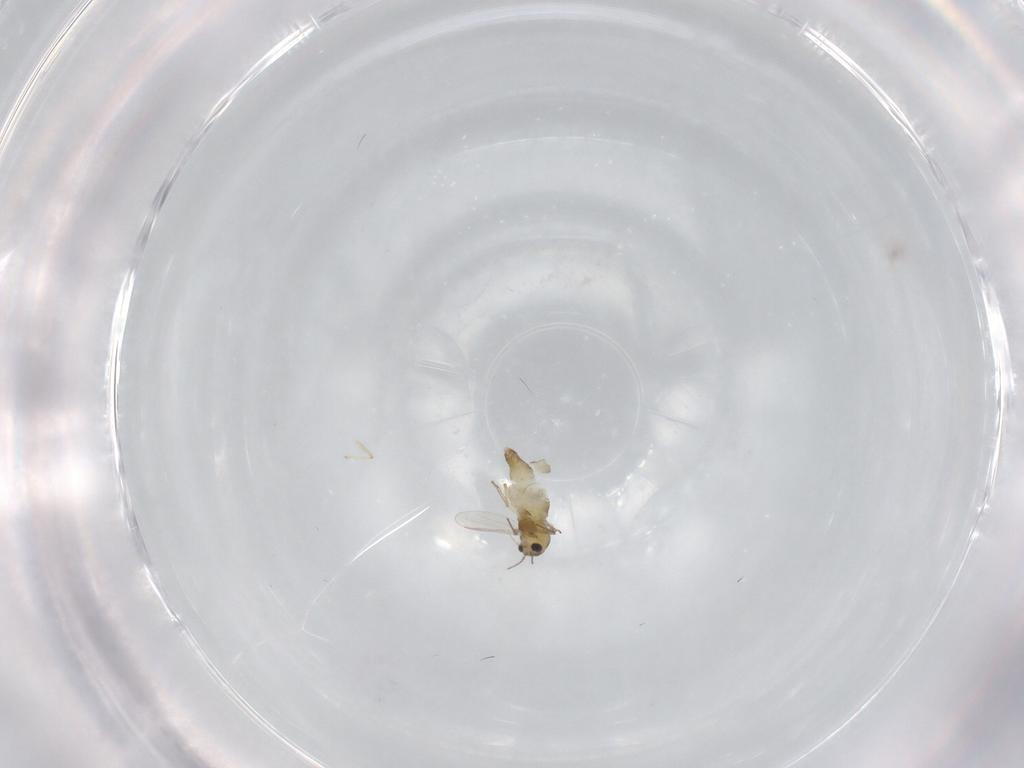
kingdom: Animalia
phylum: Arthropoda
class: Insecta
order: Diptera
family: Chironomidae
